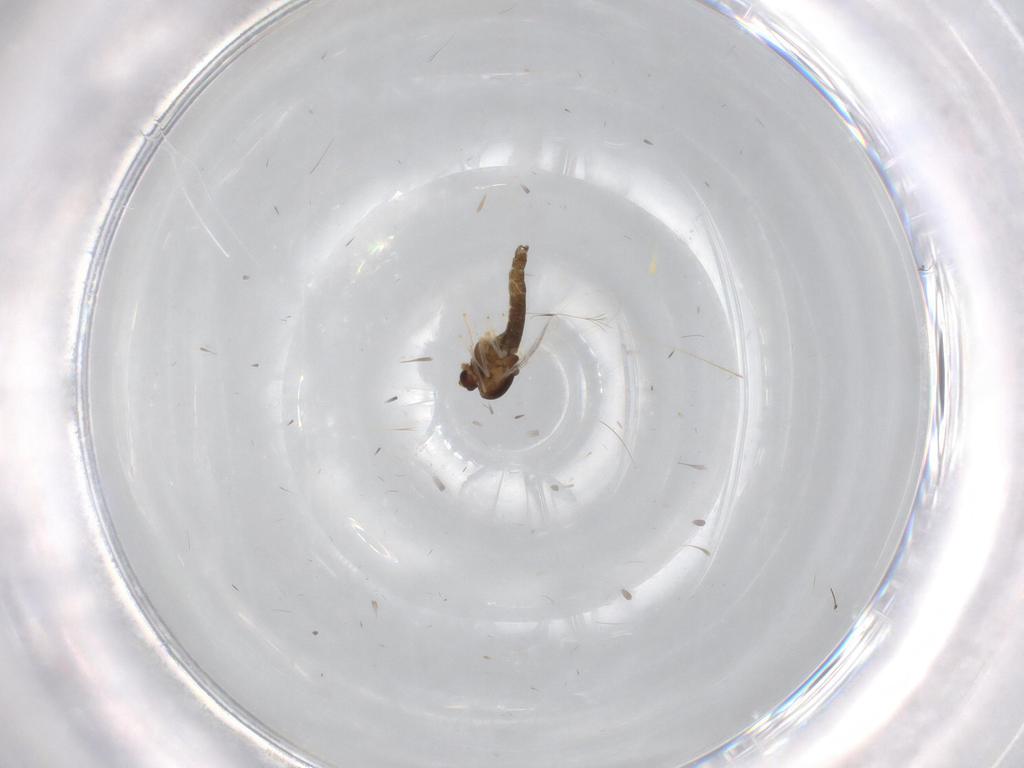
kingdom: Animalia
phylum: Arthropoda
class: Insecta
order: Diptera
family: Chironomidae
